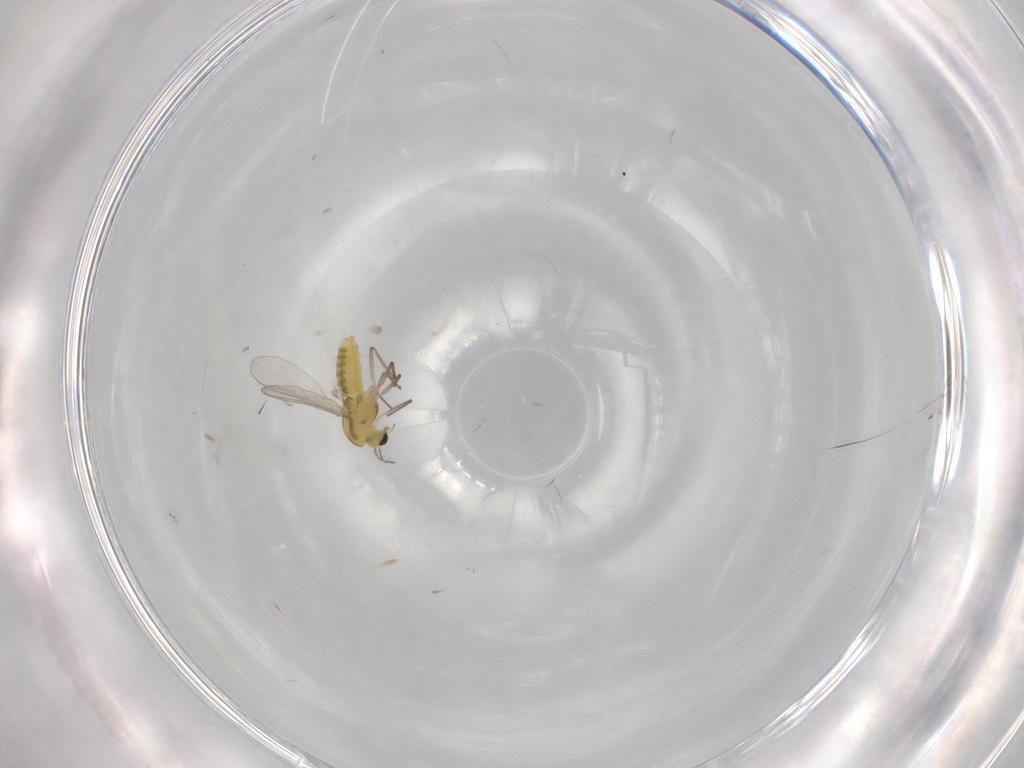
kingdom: Animalia
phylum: Arthropoda
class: Insecta
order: Diptera
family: Chironomidae
